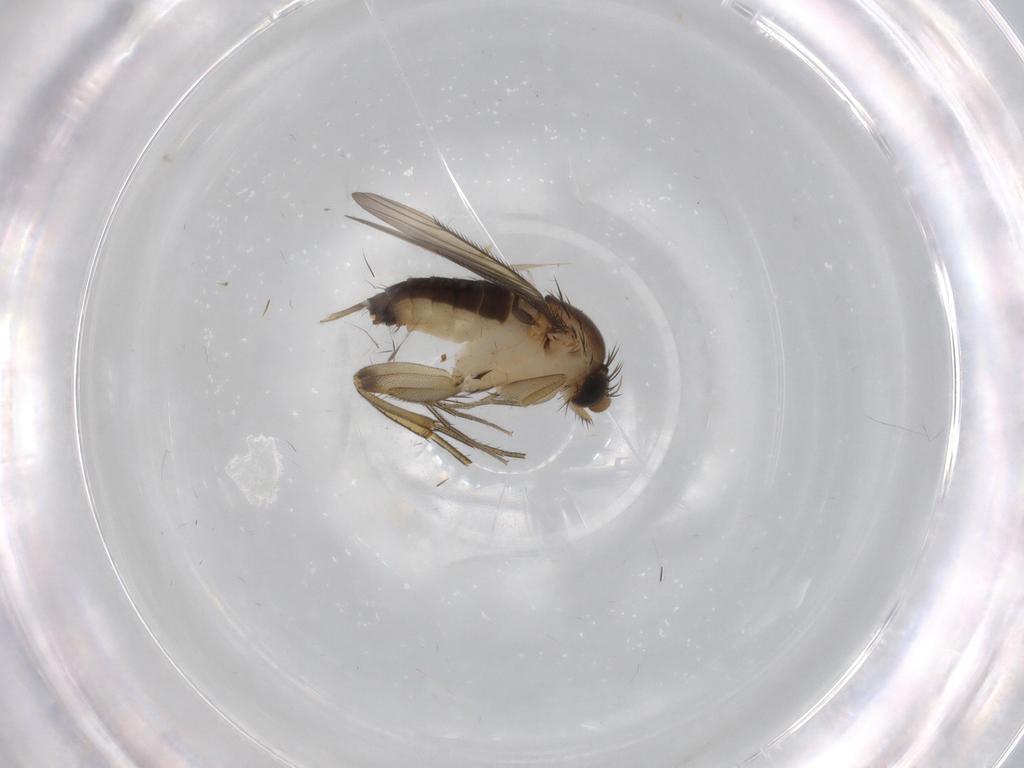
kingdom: Animalia
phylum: Arthropoda
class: Insecta
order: Diptera
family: Phoridae
